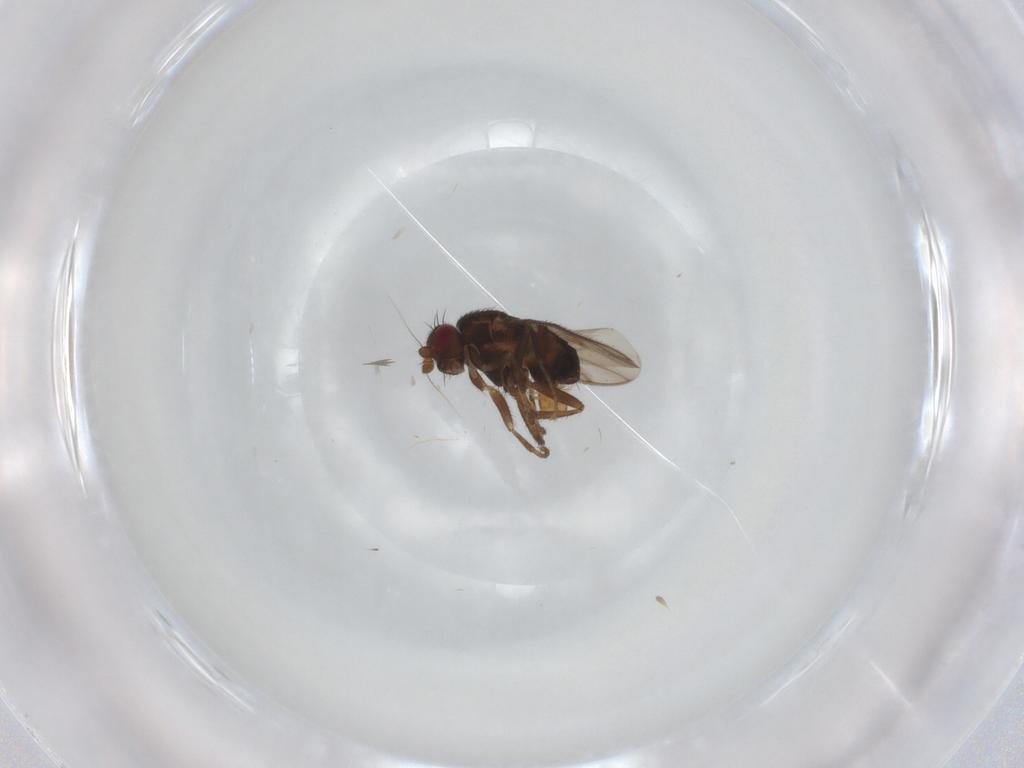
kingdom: Animalia
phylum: Arthropoda
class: Insecta
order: Diptera
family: Sphaeroceridae
